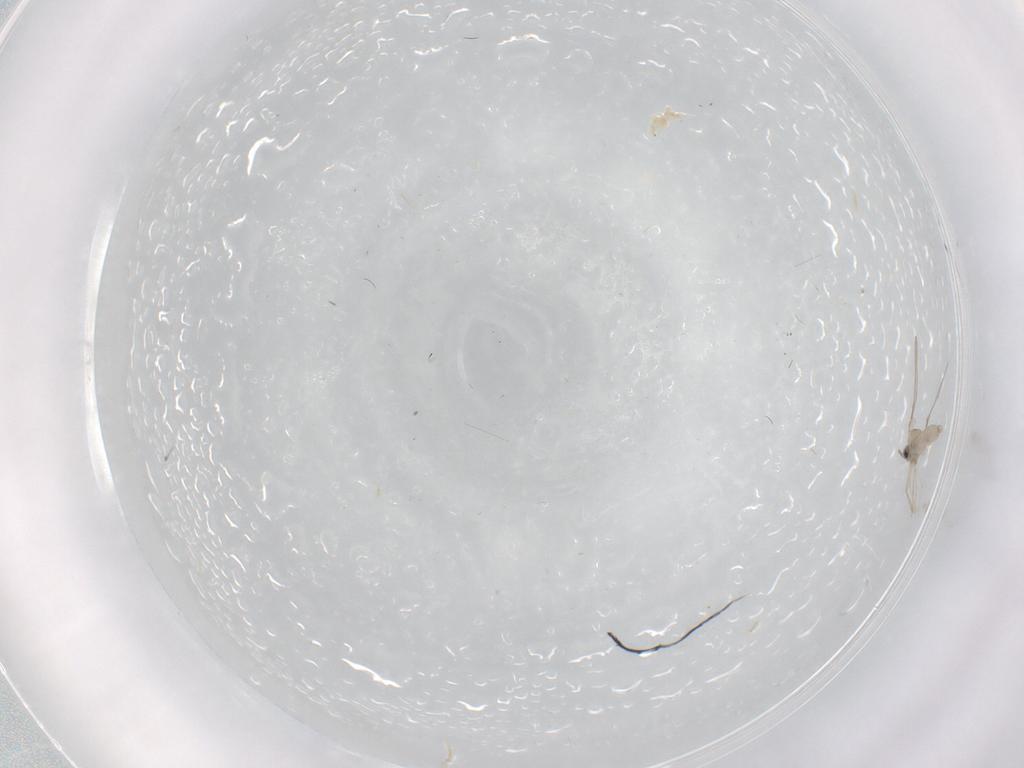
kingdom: Animalia
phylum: Arthropoda
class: Insecta
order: Diptera
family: Cecidomyiidae
